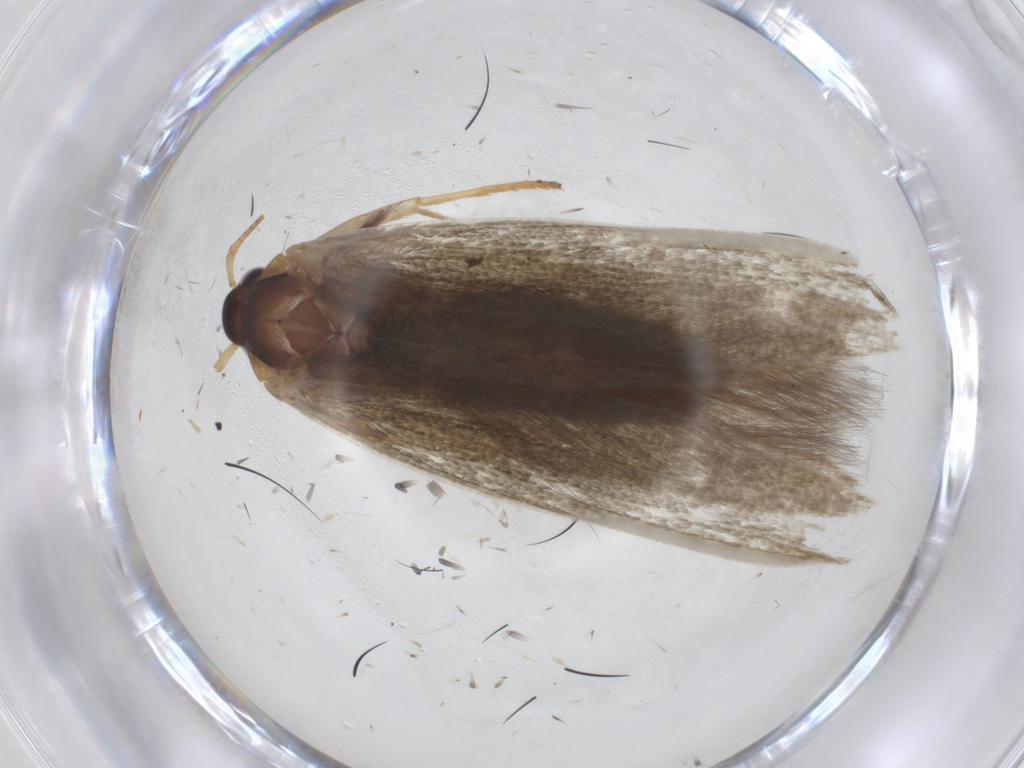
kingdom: Animalia
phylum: Arthropoda
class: Insecta
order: Lepidoptera
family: Blastobasidae
